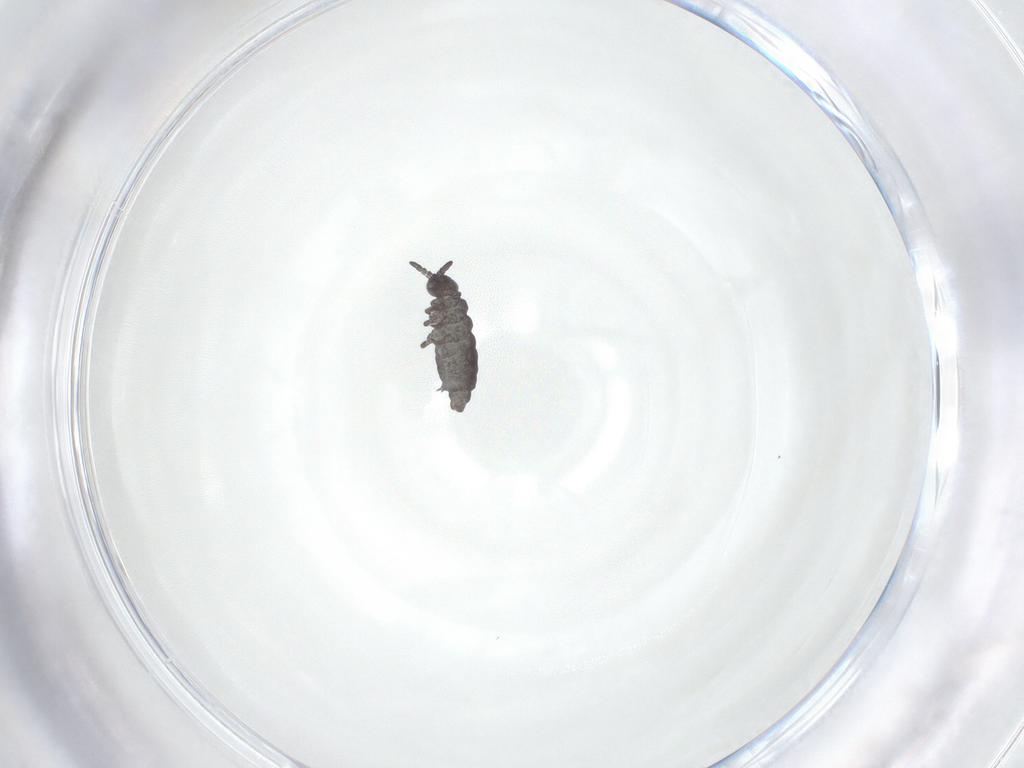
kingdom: Animalia
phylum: Arthropoda
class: Collembola
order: Poduromorpha
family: Hypogastruridae
